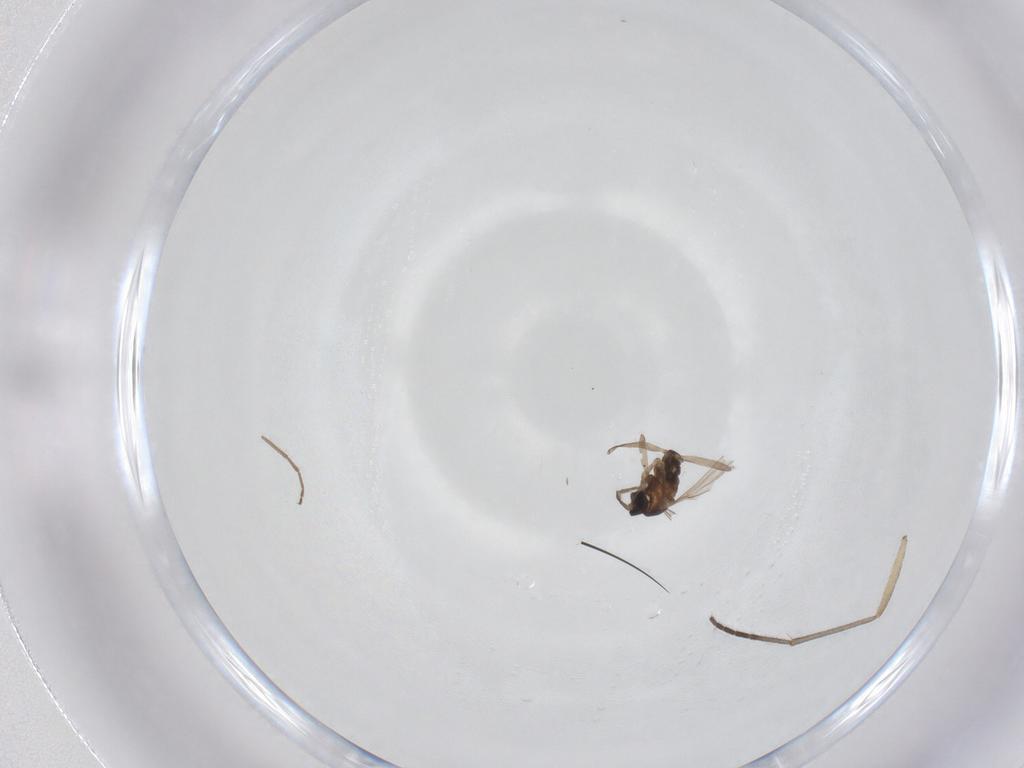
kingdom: Animalia
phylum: Arthropoda
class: Insecta
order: Diptera
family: Chironomidae
